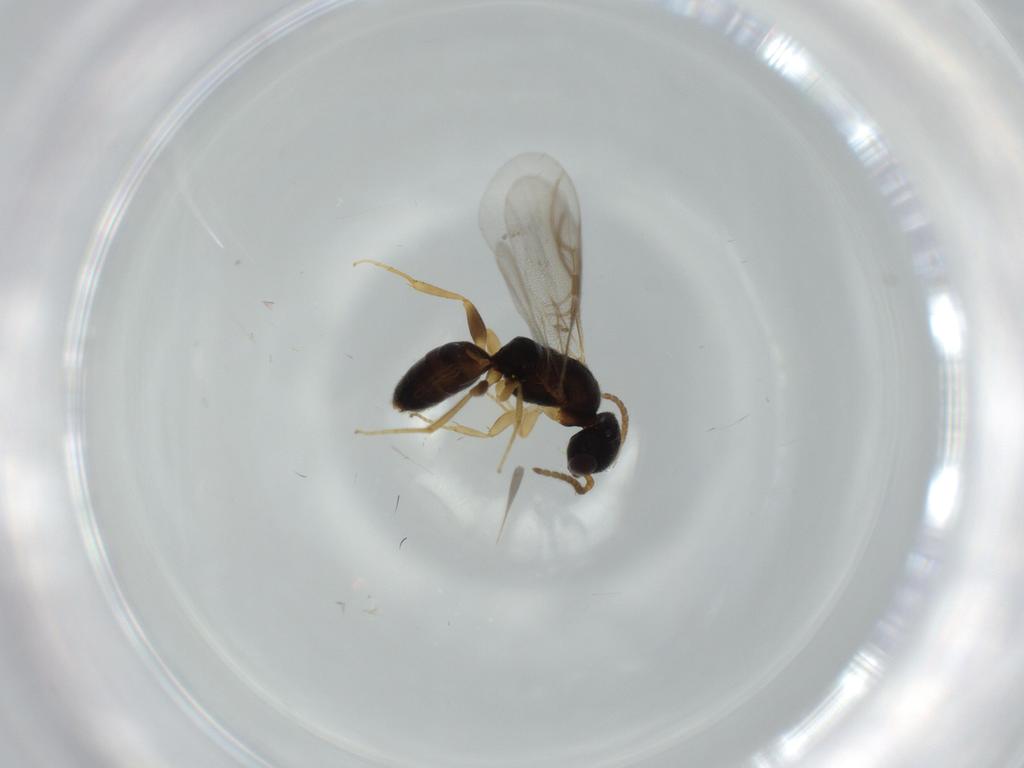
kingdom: Animalia
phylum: Arthropoda
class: Insecta
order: Hymenoptera
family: Bethylidae
